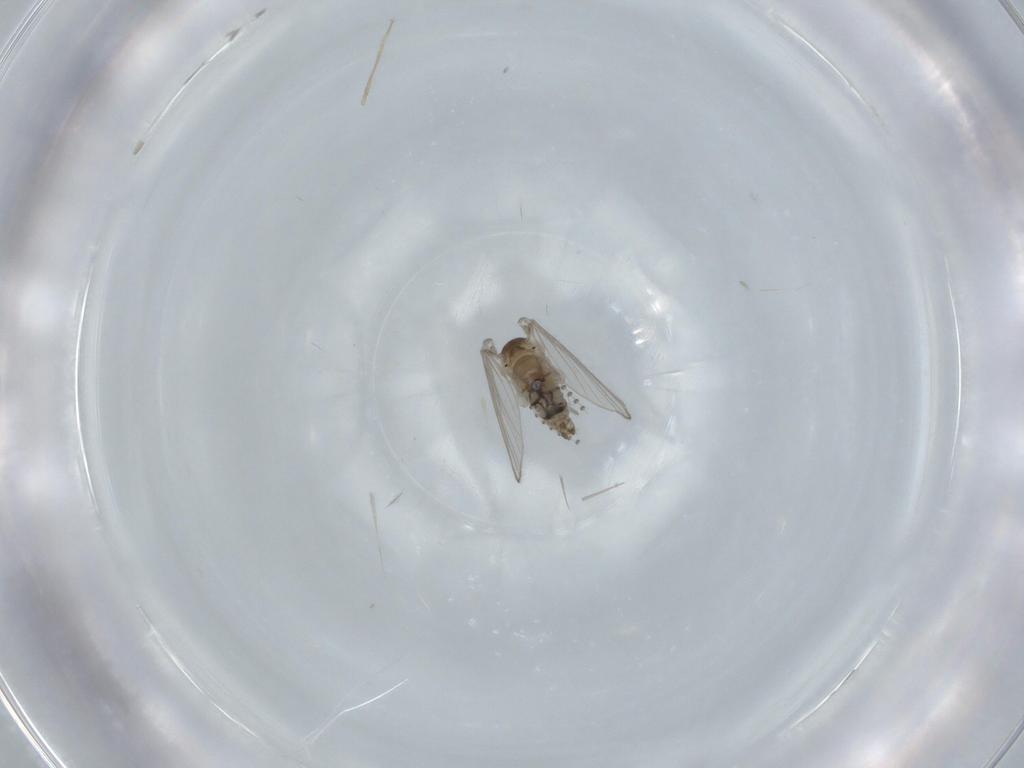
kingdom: Animalia
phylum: Arthropoda
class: Insecta
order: Diptera
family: Psychodidae
